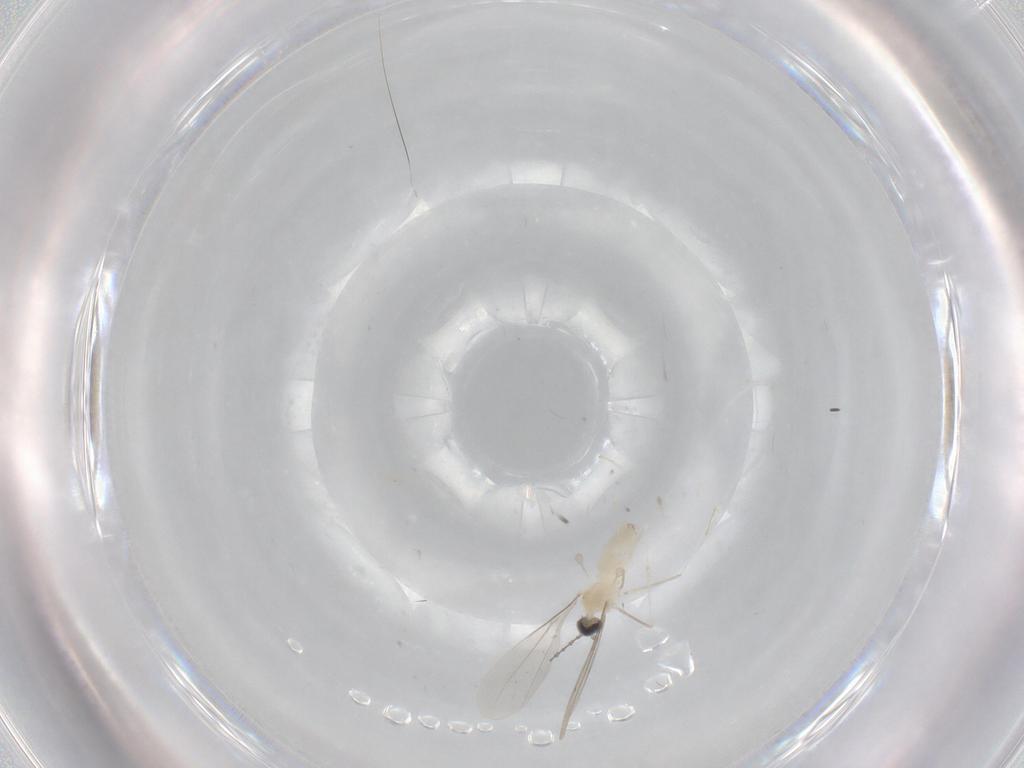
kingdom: Animalia
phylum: Arthropoda
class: Insecta
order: Diptera
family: Cecidomyiidae
